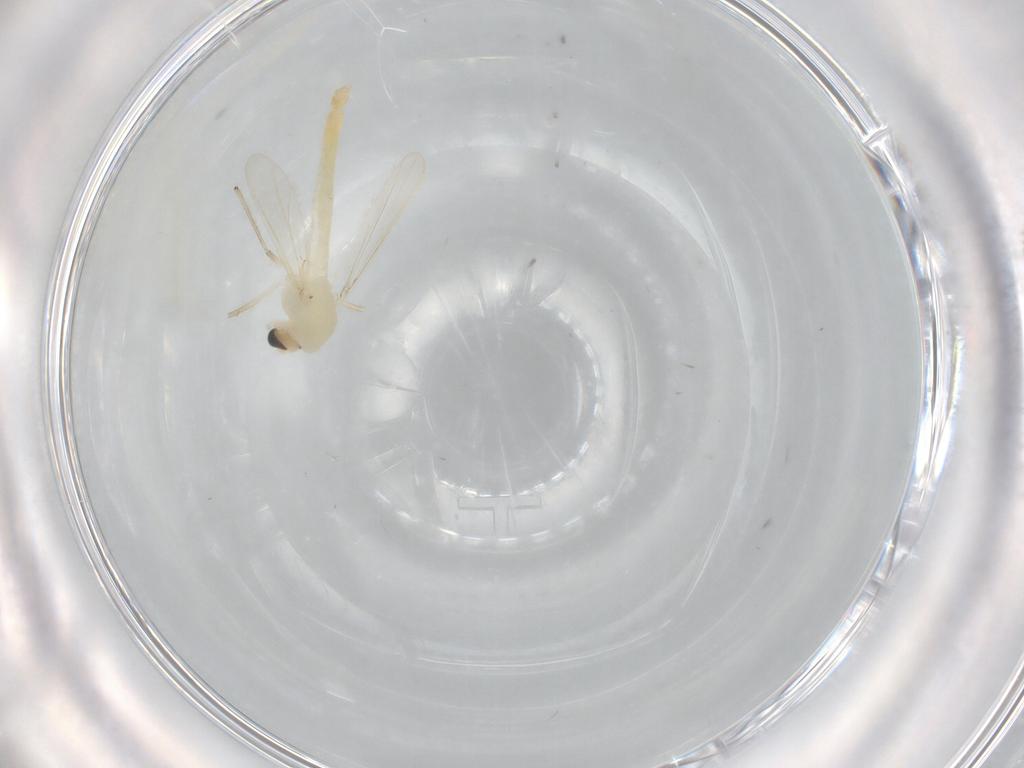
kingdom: Animalia
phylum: Arthropoda
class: Insecta
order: Diptera
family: Chironomidae
